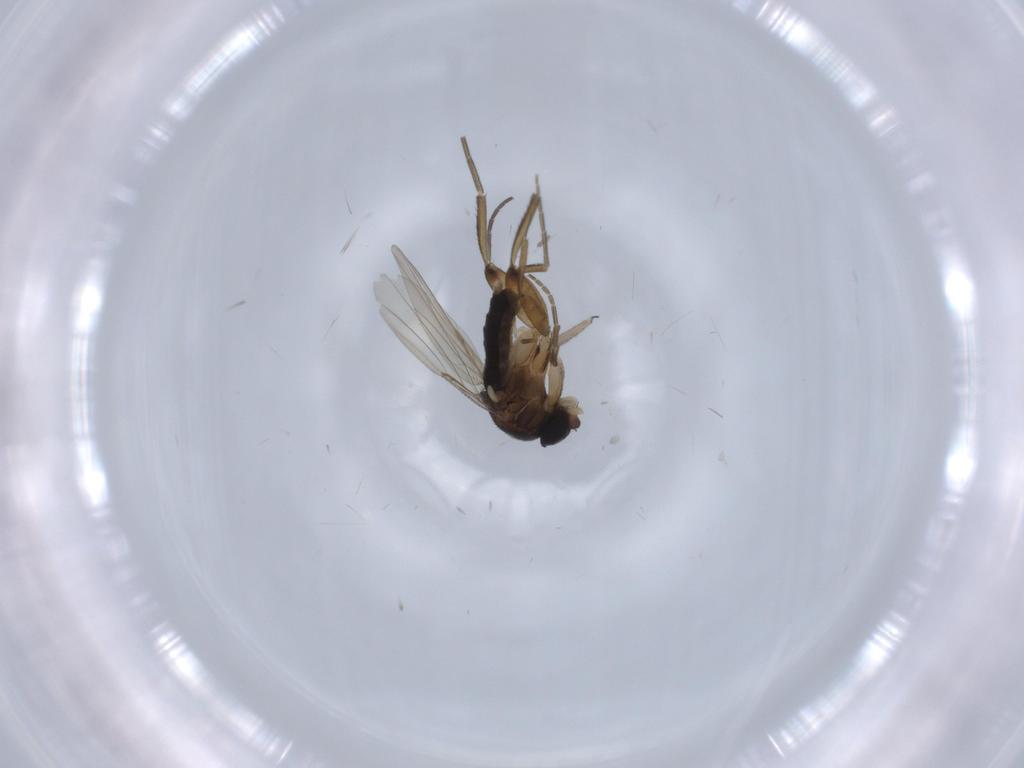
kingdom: Animalia
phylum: Arthropoda
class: Insecta
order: Diptera
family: Sciaridae
